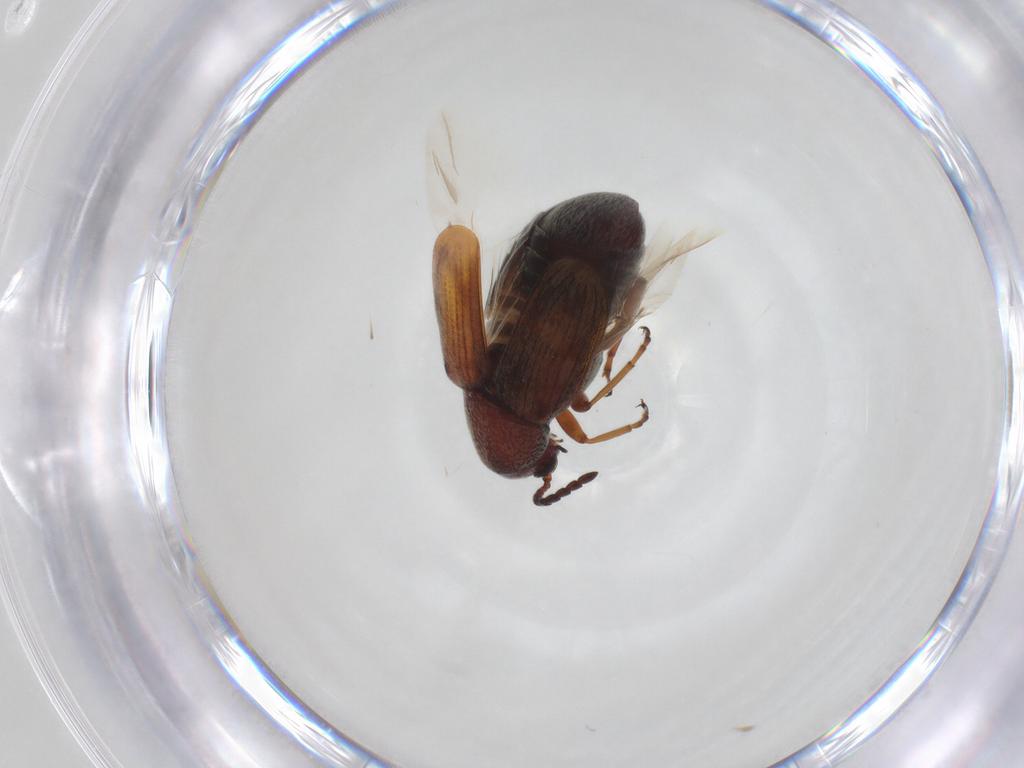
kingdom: Animalia
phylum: Arthropoda
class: Insecta
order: Coleoptera
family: Chrysomelidae
